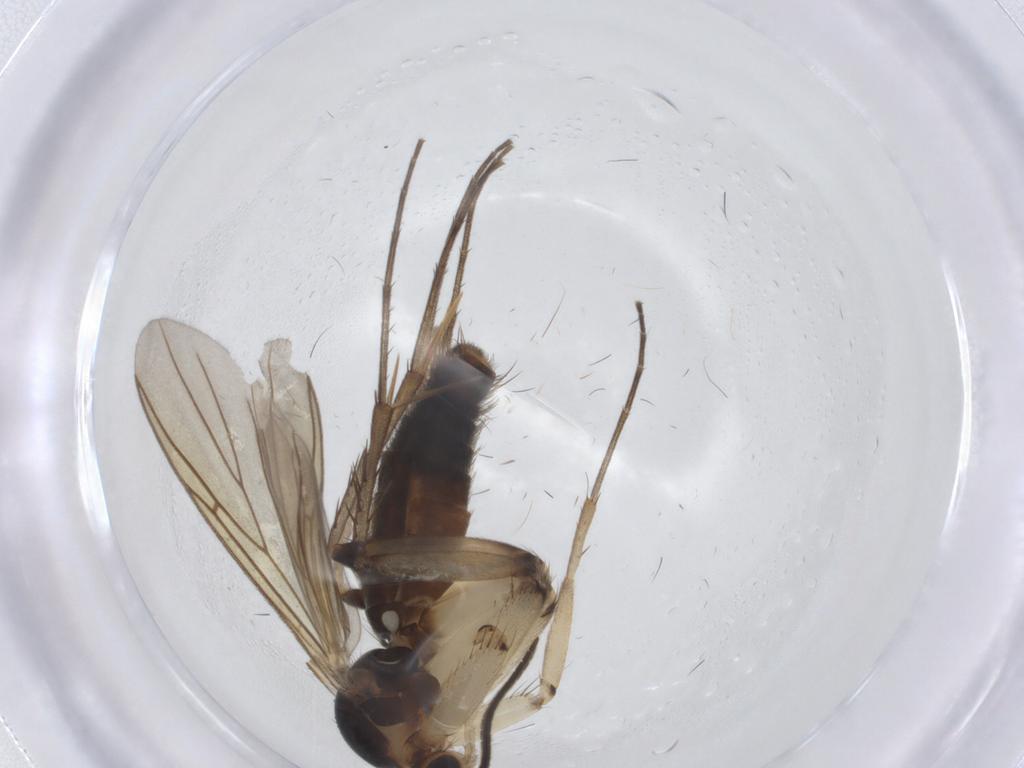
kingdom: Animalia
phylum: Arthropoda
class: Insecta
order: Diptera
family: Mycetophilidae
